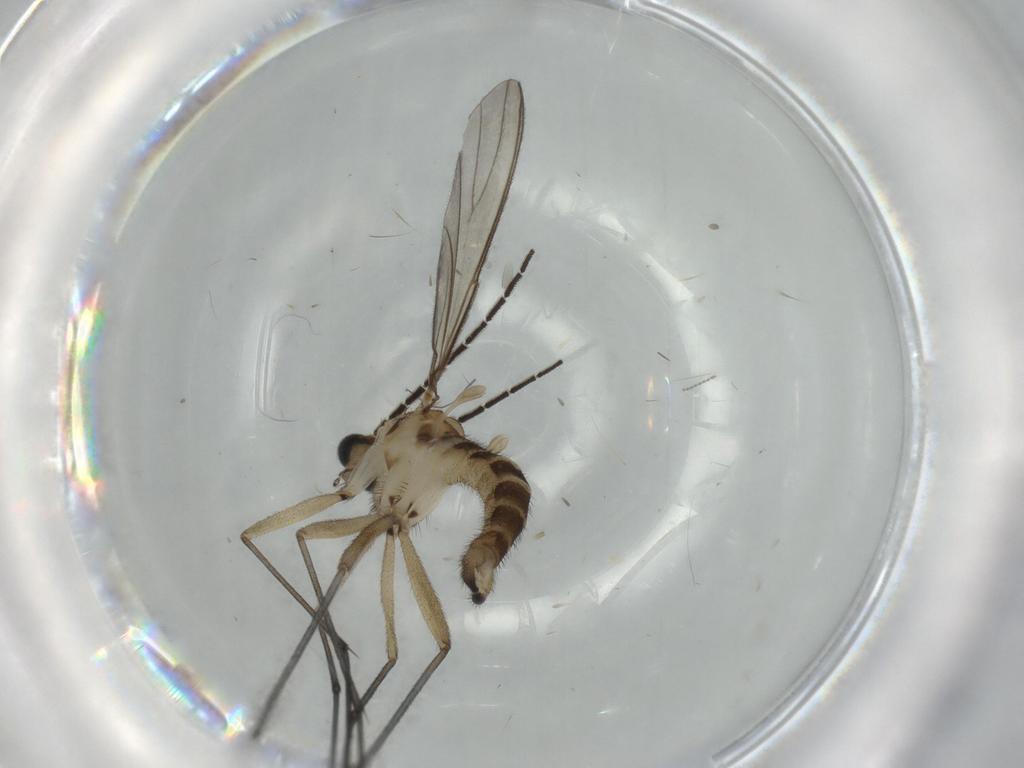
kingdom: Animalia
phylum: Arthropoda
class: Insecta
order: Diptera
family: Sciaridae
